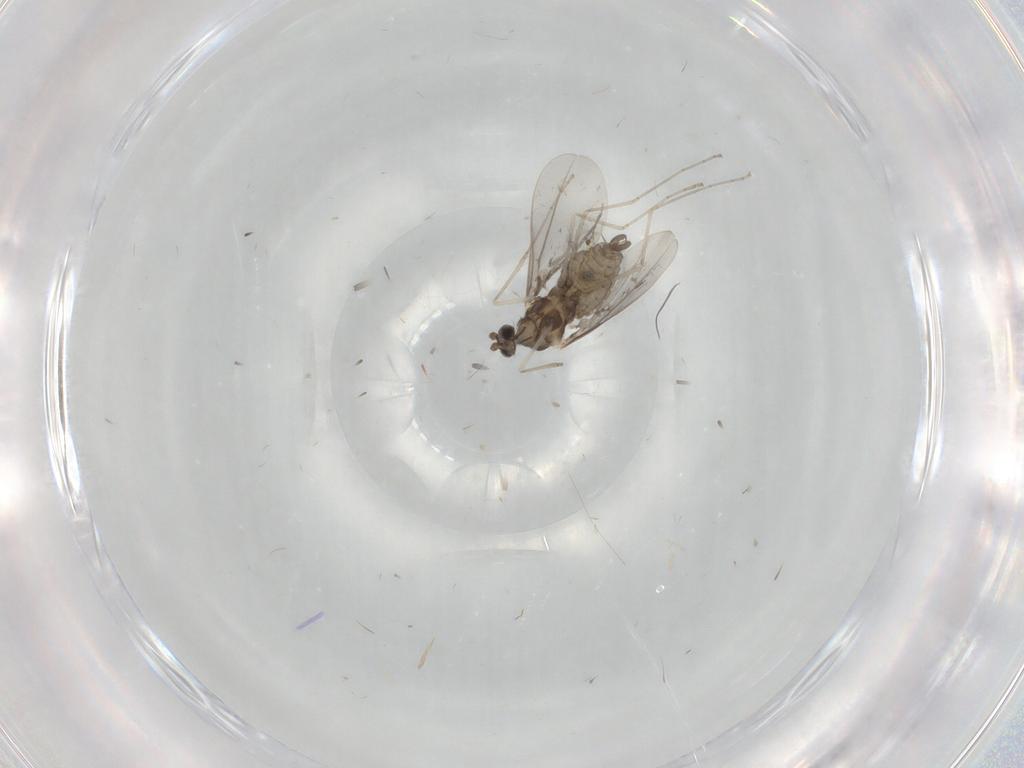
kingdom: Animalia
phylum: Arthropoda
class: Insecta
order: Diptera
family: Cecidomyiidae
